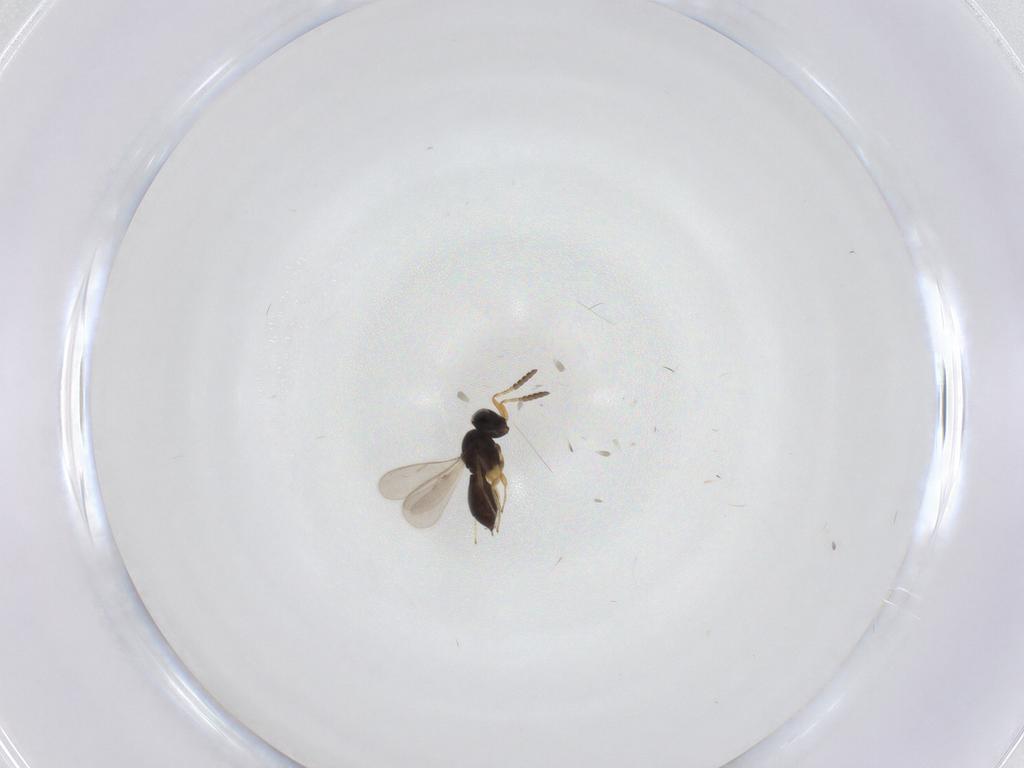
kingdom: Animalia
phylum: Arthropoda
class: Insecta
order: Hymenoptera
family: Scelionidae
